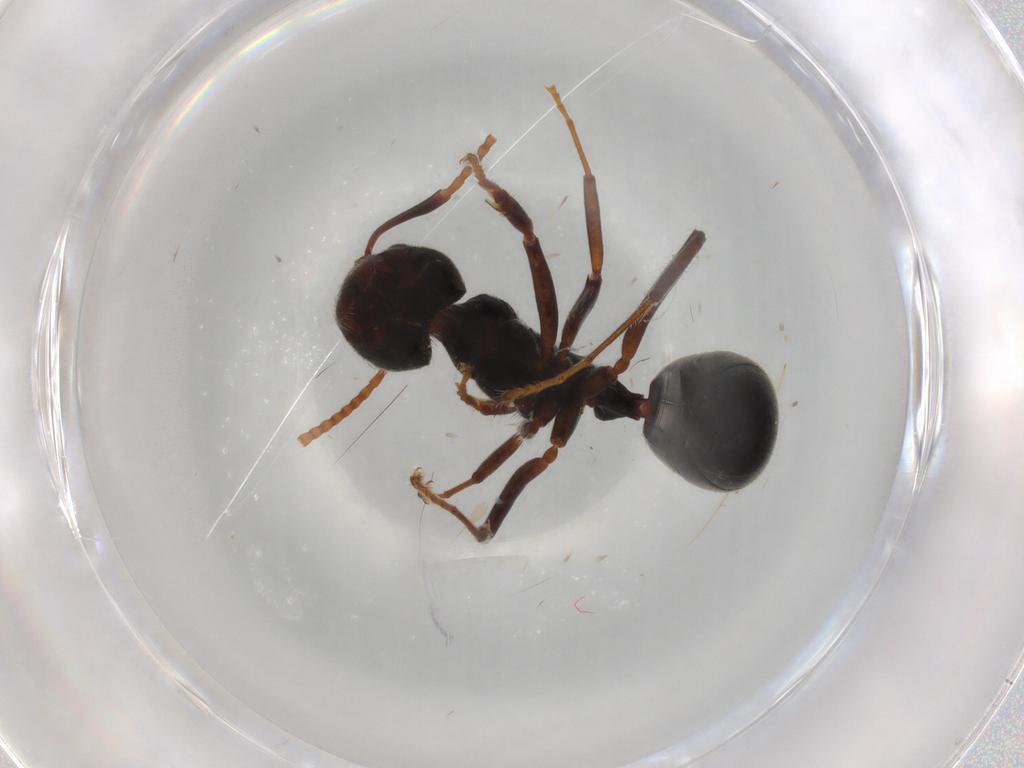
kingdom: Animalia
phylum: Arthropoda
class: Insecta
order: Hymenoptera
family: Formicidae
